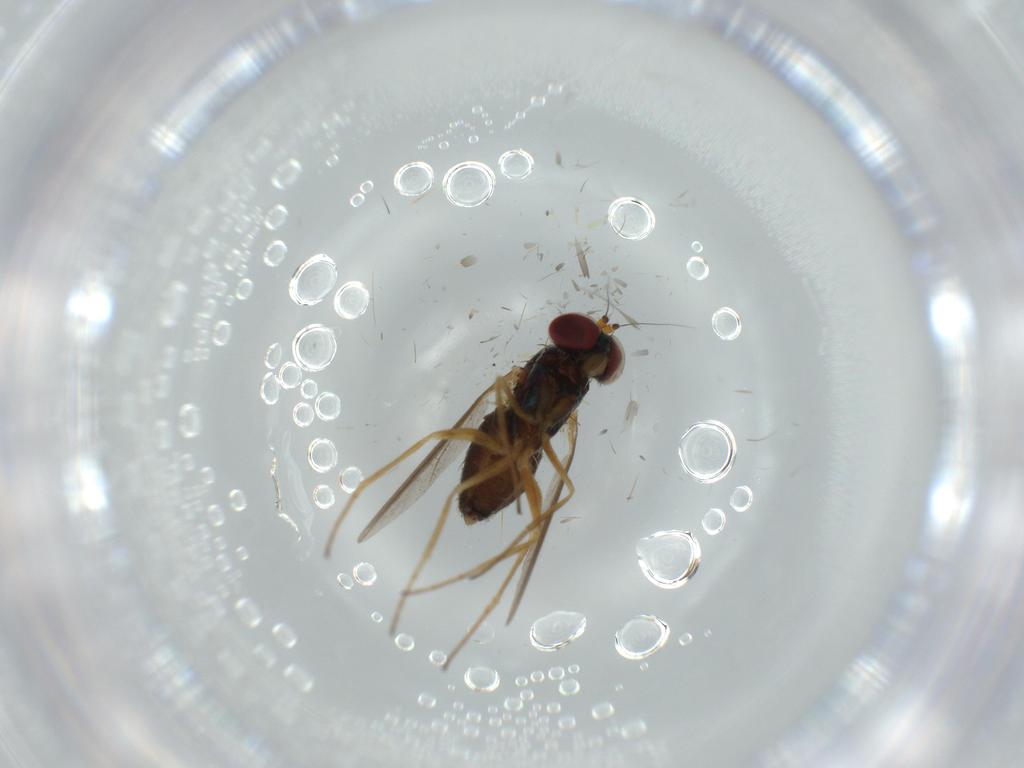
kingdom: Animalia
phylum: Arthropoda
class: Insecta
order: Diptera
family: Dolichopodidae
